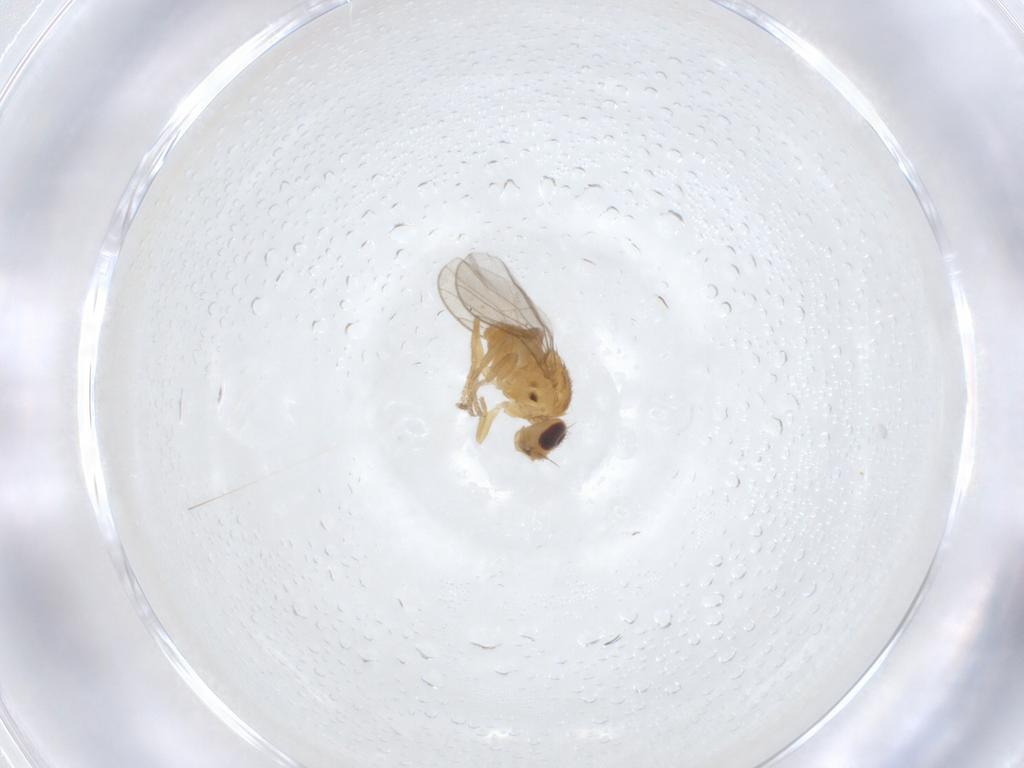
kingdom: Animalia
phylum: Arthropoda
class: Insecta
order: Diptera
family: Chloropidae
